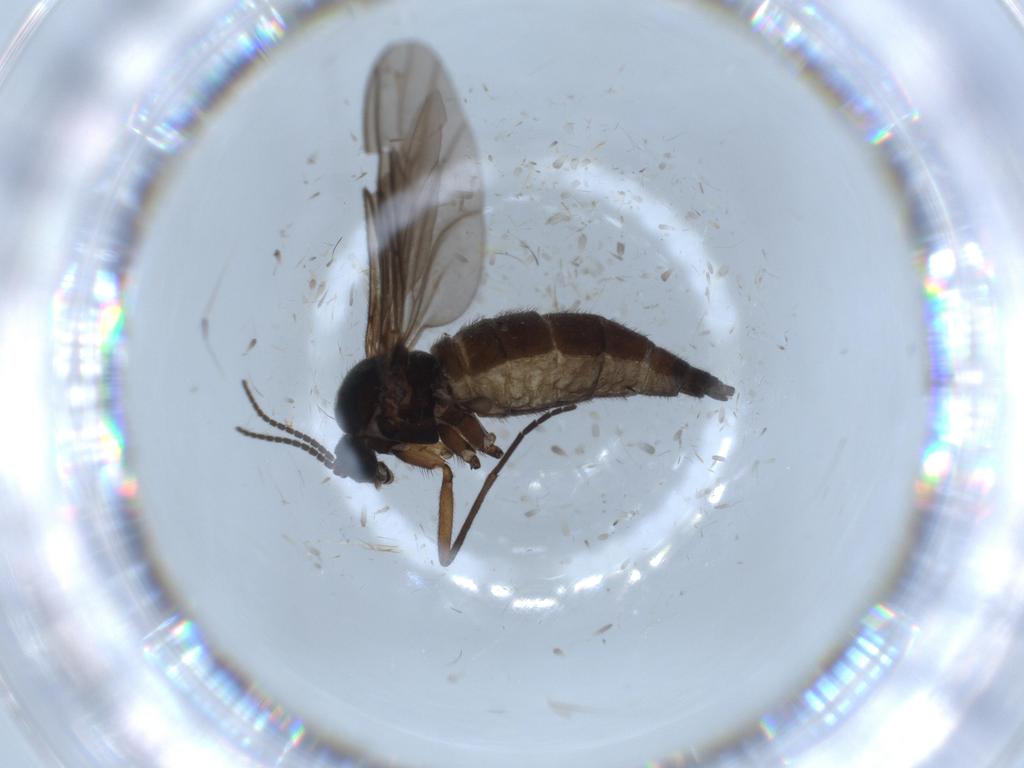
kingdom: Animalia
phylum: Arthropoda
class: Insecta
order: Diptera
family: Sciaridae
